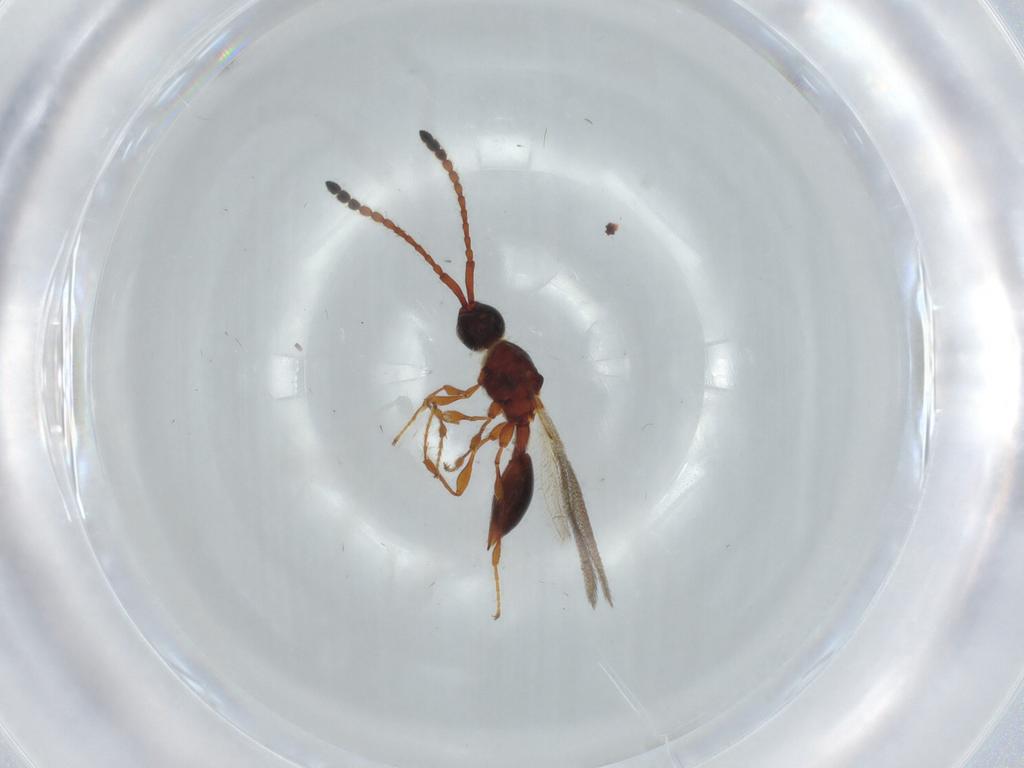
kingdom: Animalia
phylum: Arthropoda
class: Insecta
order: Hymenoptera
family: Diapriidae
